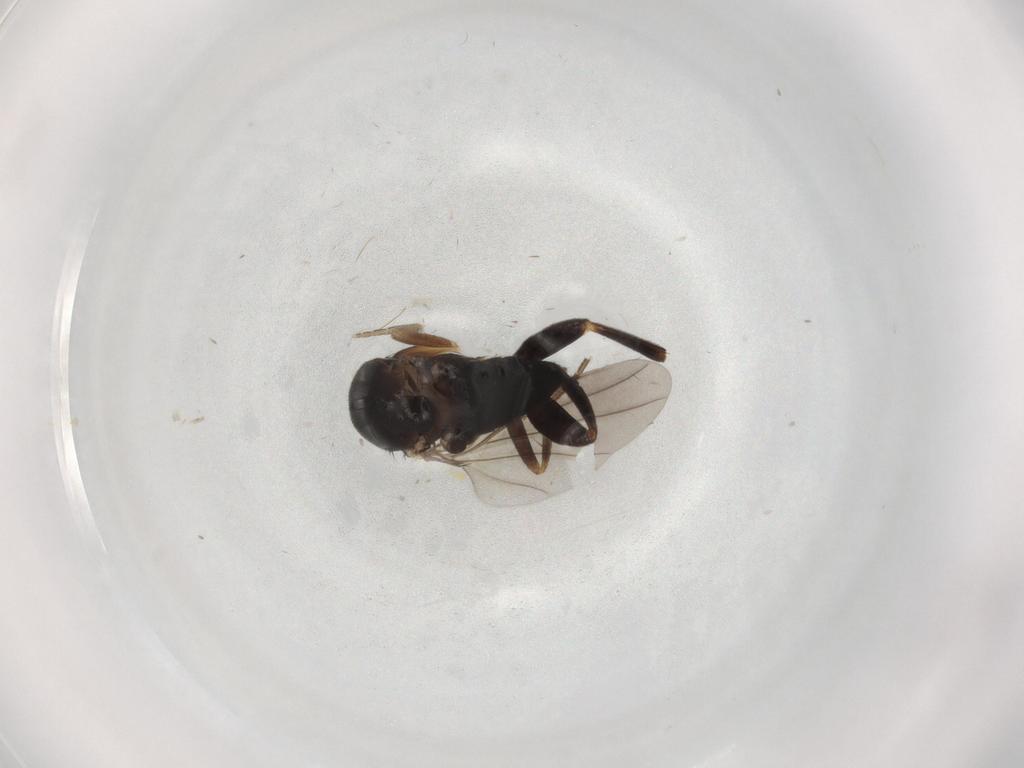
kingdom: Animalia
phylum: Arthropoda
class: Insecta
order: Diptera
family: Phoridae
